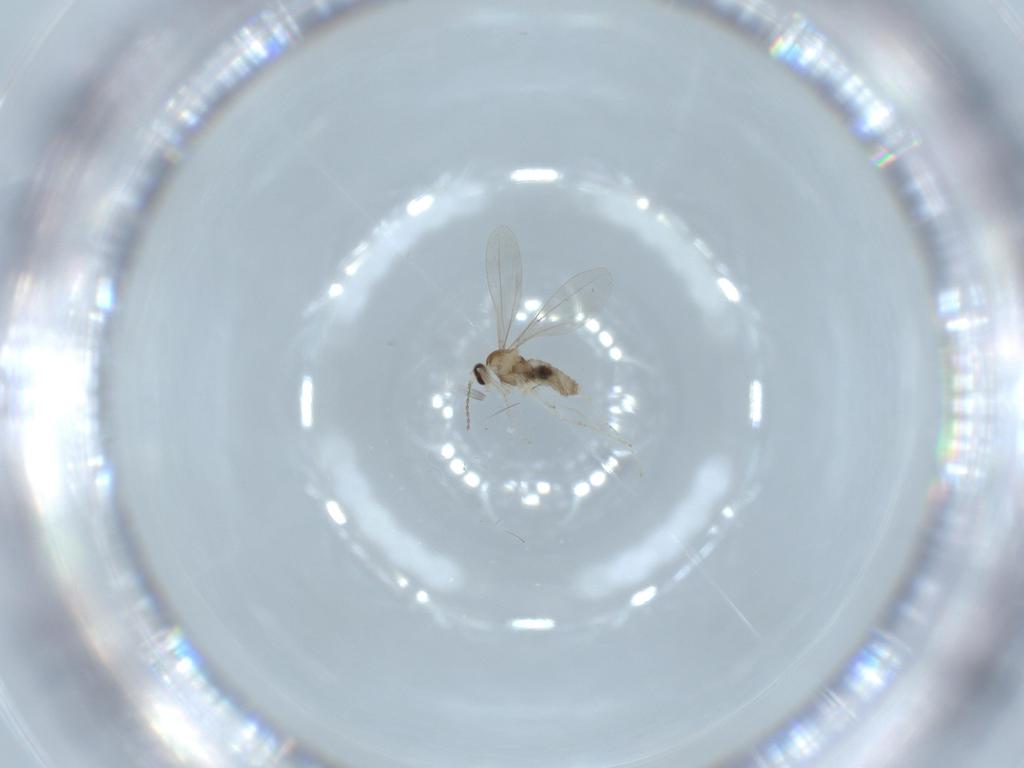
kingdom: Animalia
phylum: Arthropoda
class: Insecta
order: Diptera
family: Cecidomyiidae
